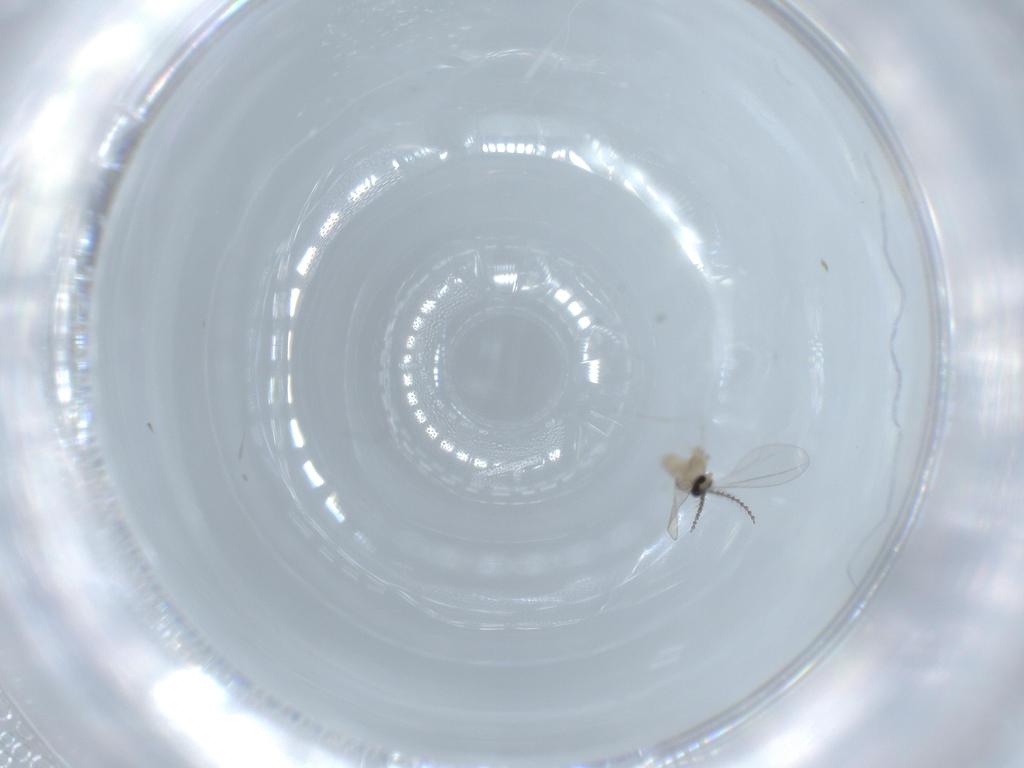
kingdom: Animalia
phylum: Arthropoda
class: Insecta
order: Diptera
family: Cecidomyiidae
